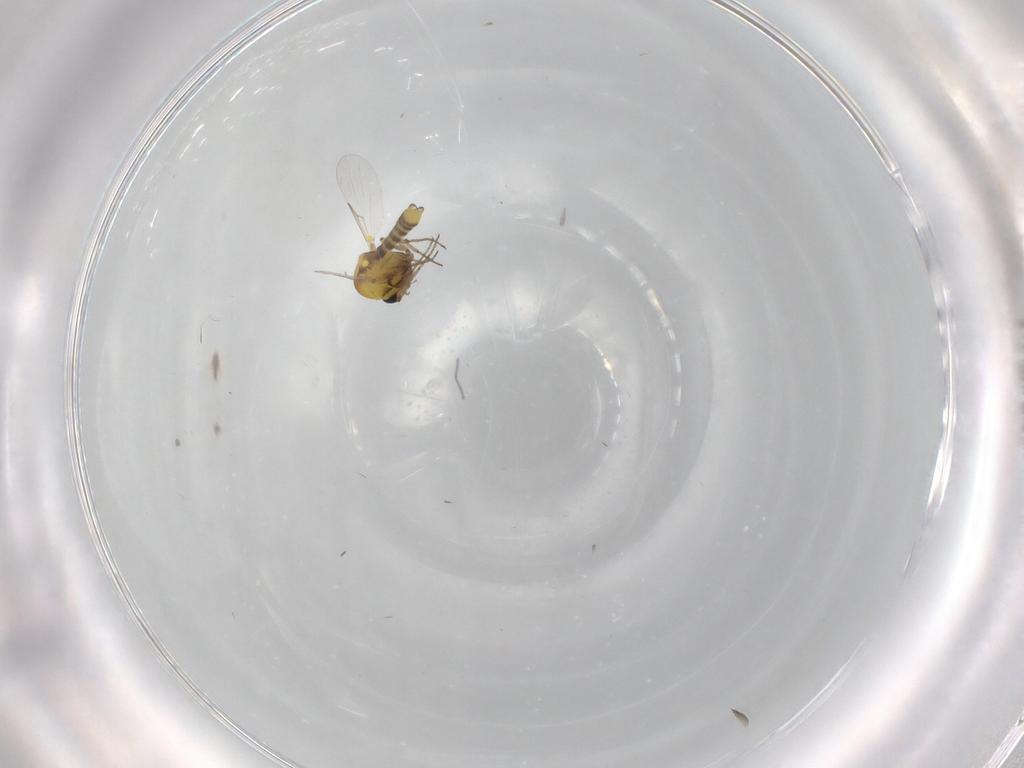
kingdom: Animalia
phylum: Arthropoda
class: Insecta
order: Diptera
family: Ceratopogonidae
